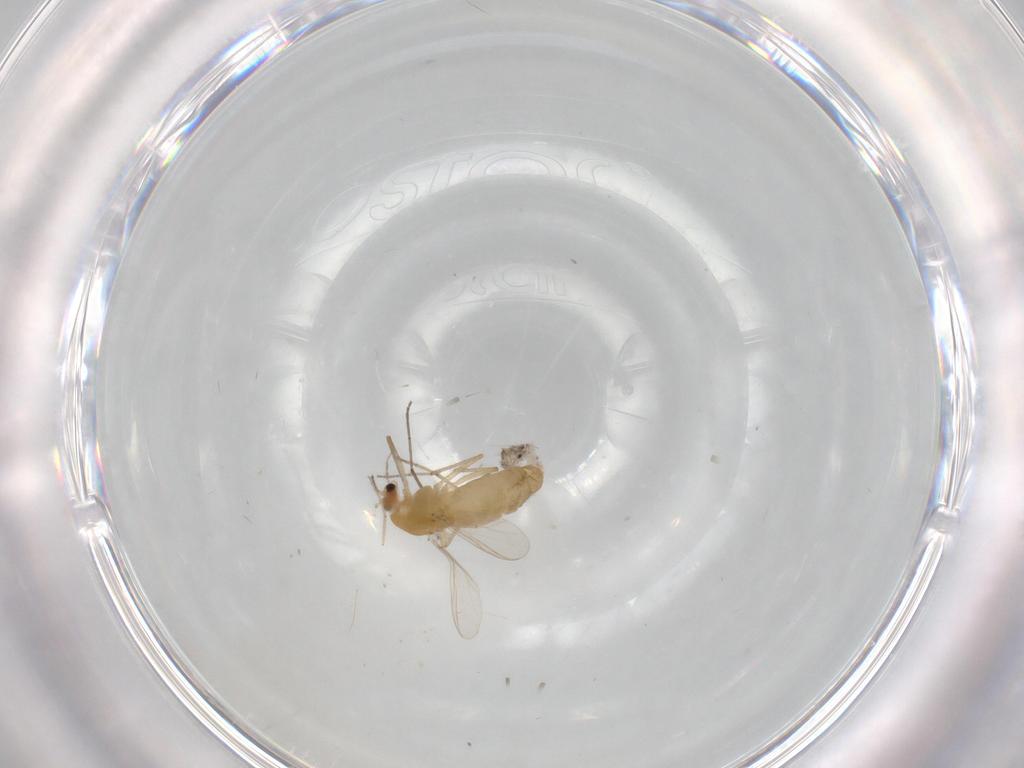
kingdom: Animalia
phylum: Arthropoda
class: Insecta
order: Diptera
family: Chironomidae
